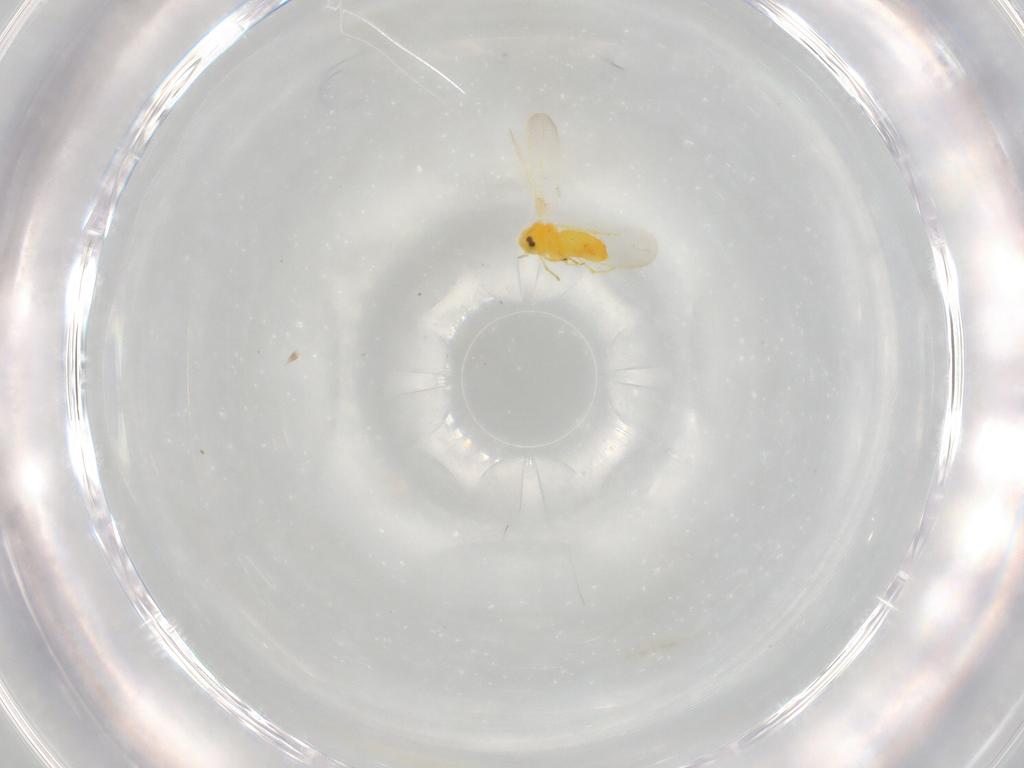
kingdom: Animalia
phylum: Arthropoda
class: Insecta
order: Hemiptera
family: Aleyrodidae
